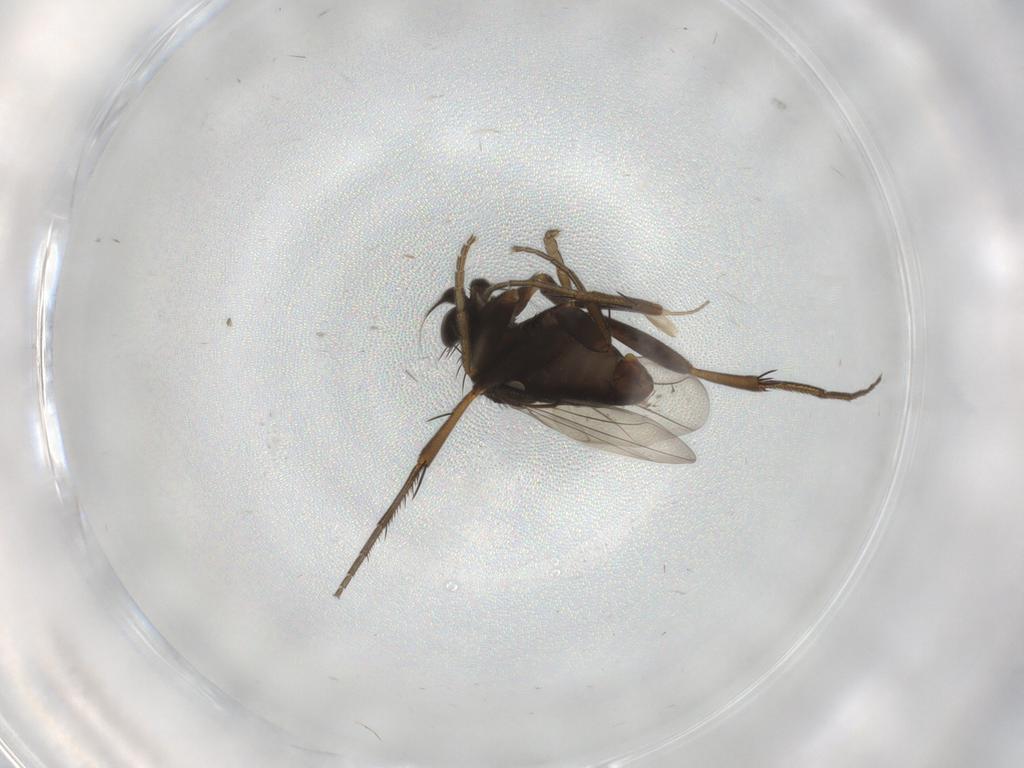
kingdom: Animalia
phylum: Arthropoda
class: Insecta
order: Diptera
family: Phoridae
